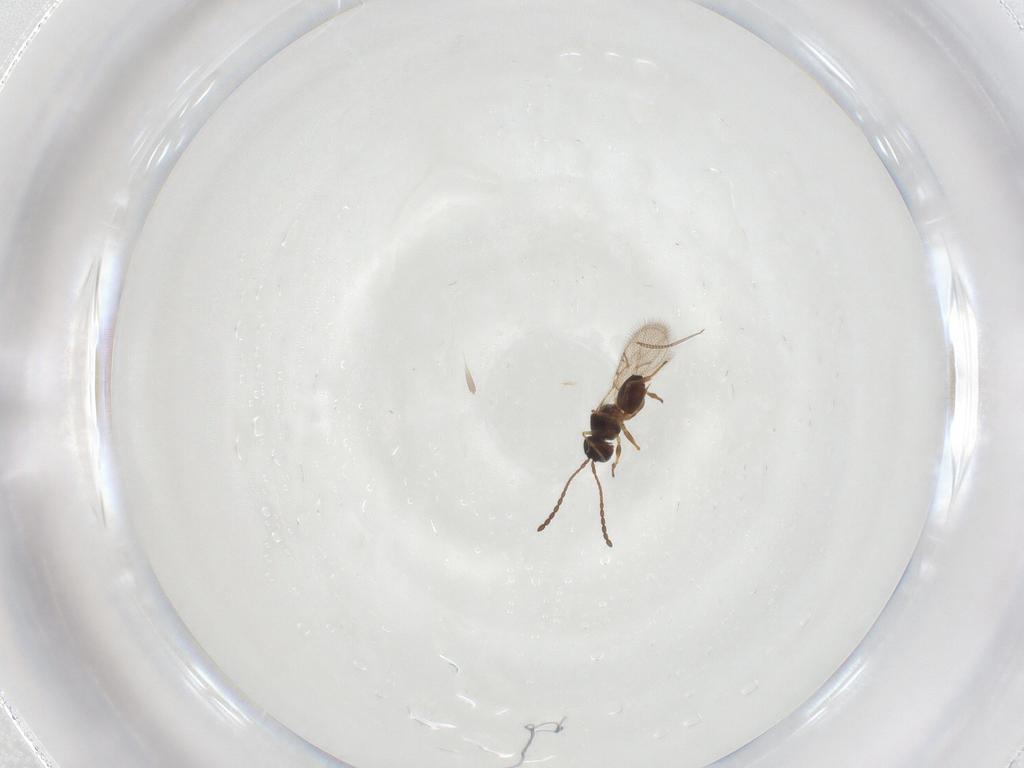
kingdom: Animalia
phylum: Arthropoda
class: Insecta
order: Hymenoptera
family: Figitidae
